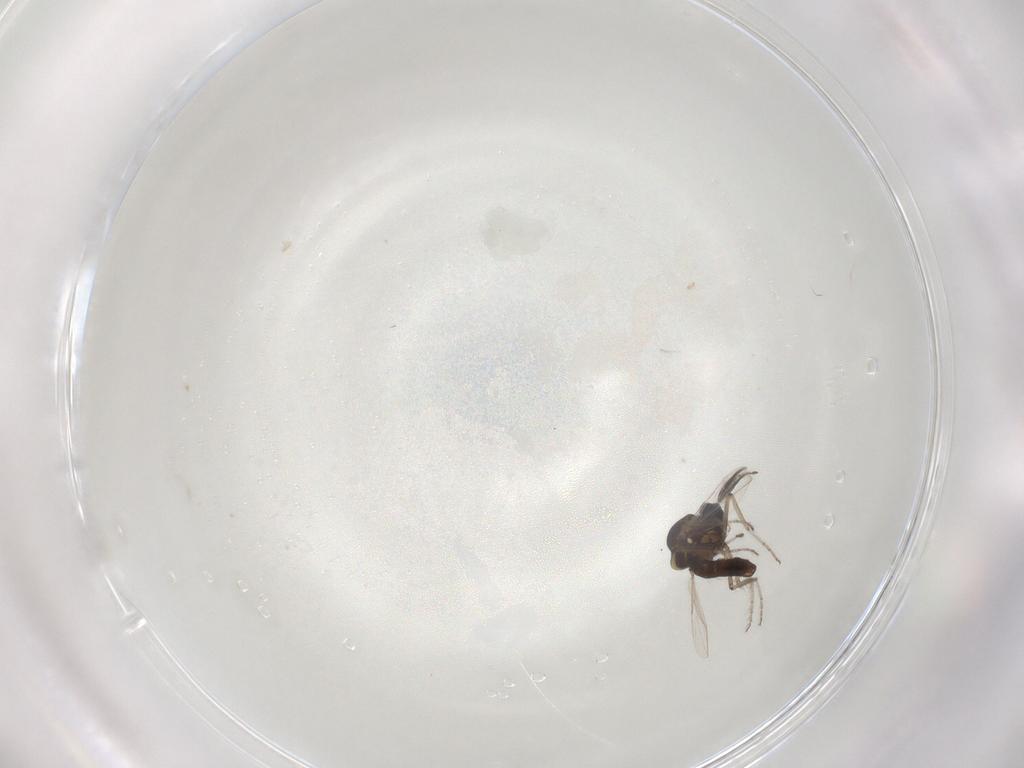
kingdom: Animalia
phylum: Arthropoda
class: Insecta
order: Diptera
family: Ceratopogonidae
